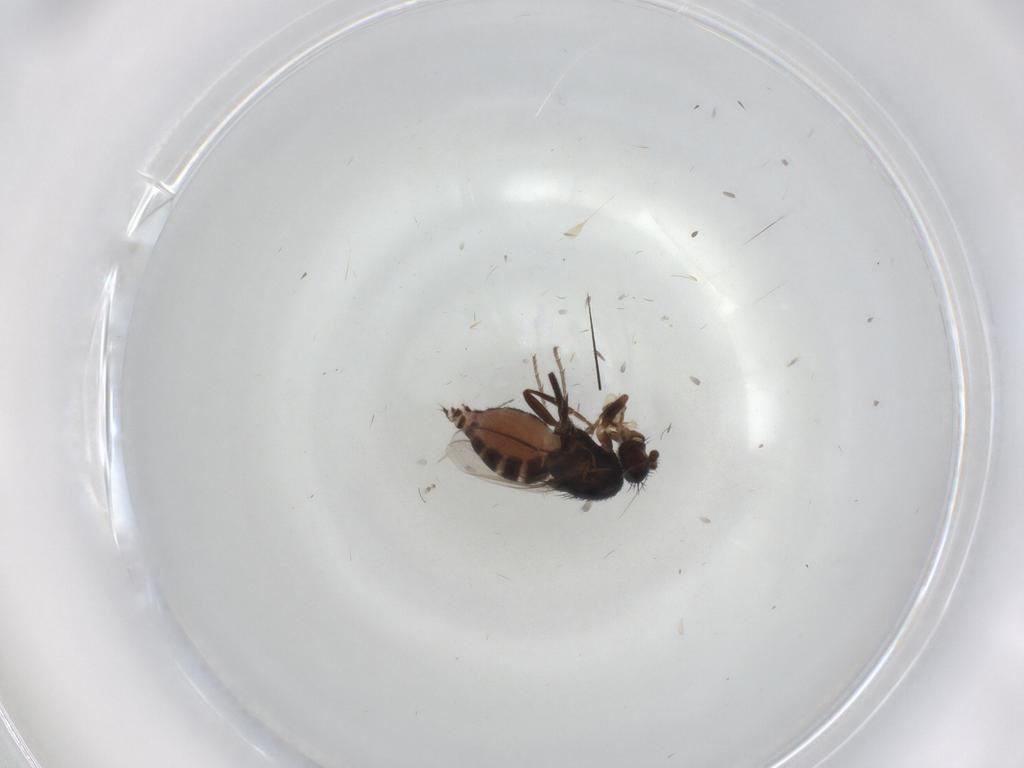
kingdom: Animalia
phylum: Arthropoda
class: Insecta
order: Diptera
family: Sphaeroceridae
